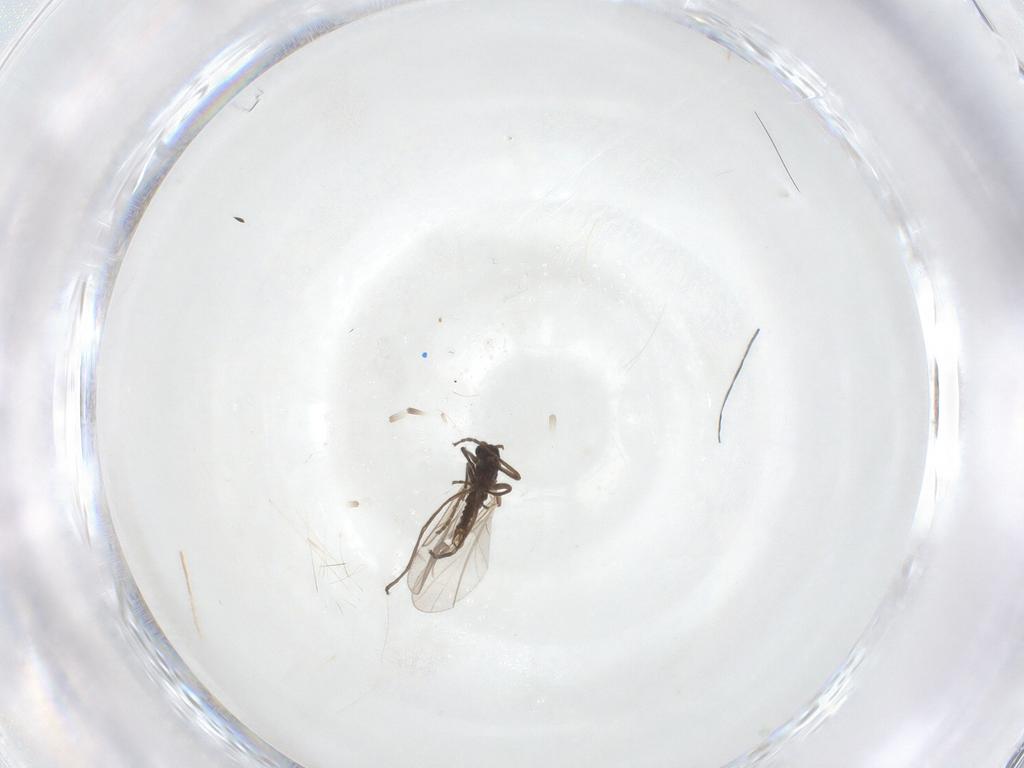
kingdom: Animalia
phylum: Arthropoda
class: Insecta
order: Diptera
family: Cecidomyiidae
